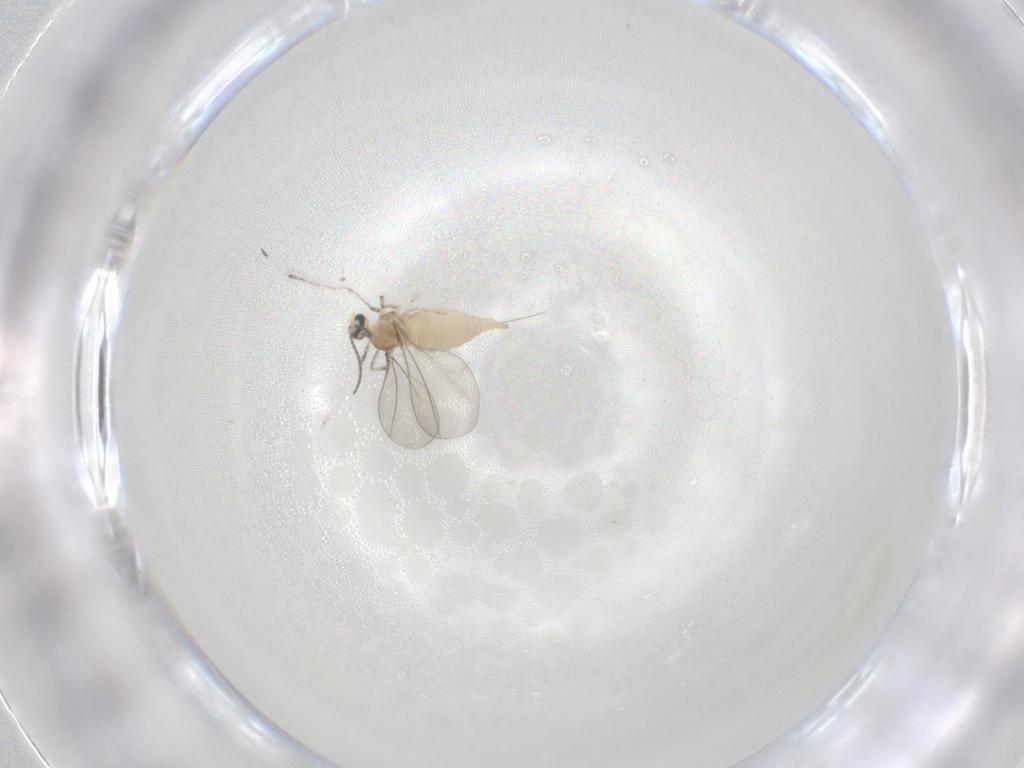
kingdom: Animalia
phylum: Arthropoda
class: Insecta
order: Diptera
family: Cecidomyiidae
